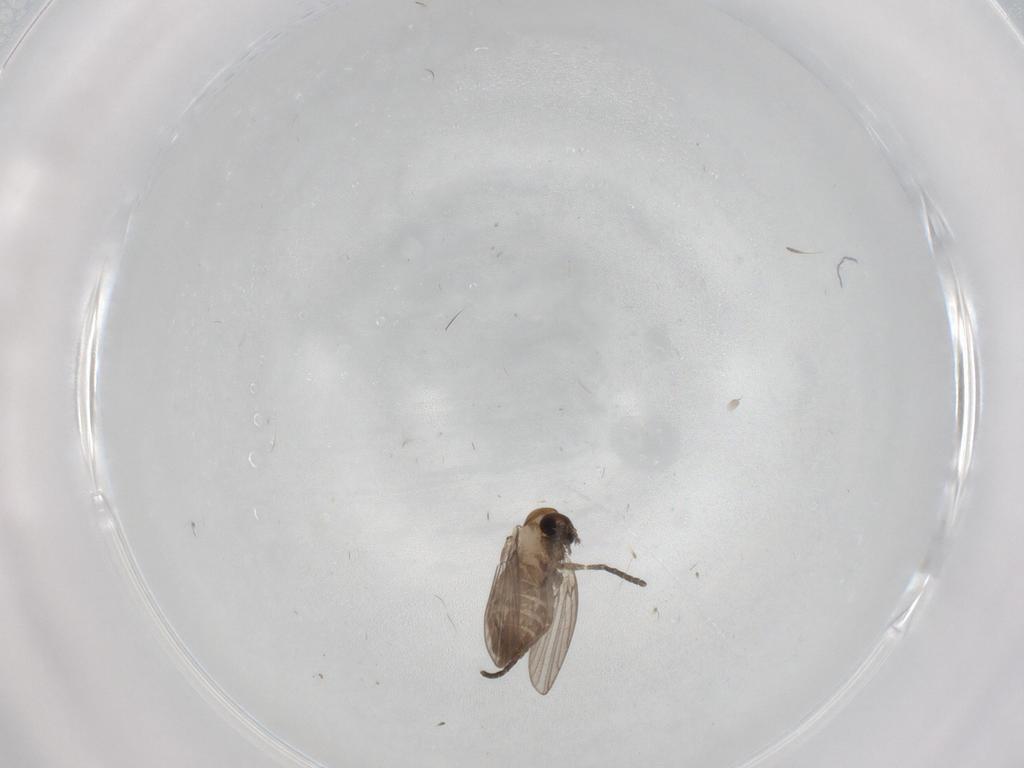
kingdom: Animalia
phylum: Arthropoda
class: Insecta
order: Diptera
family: Psychodidae
